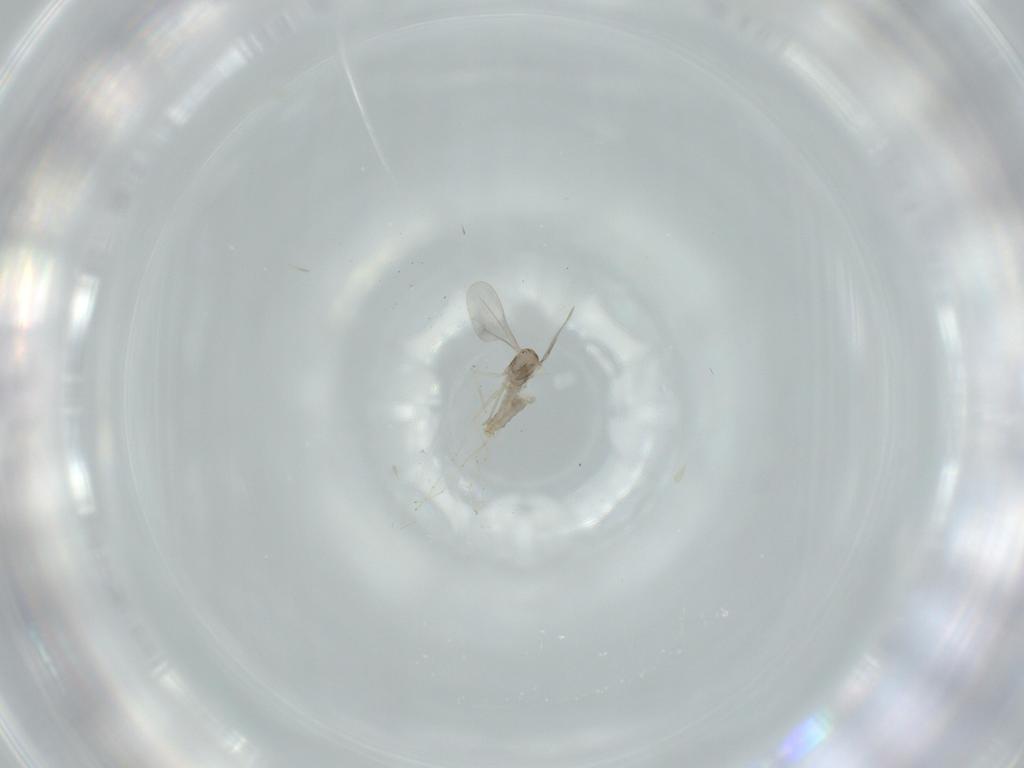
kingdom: Animalia
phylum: Arthropoda
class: Insecta
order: Diptera
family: Cecidomyiidae
